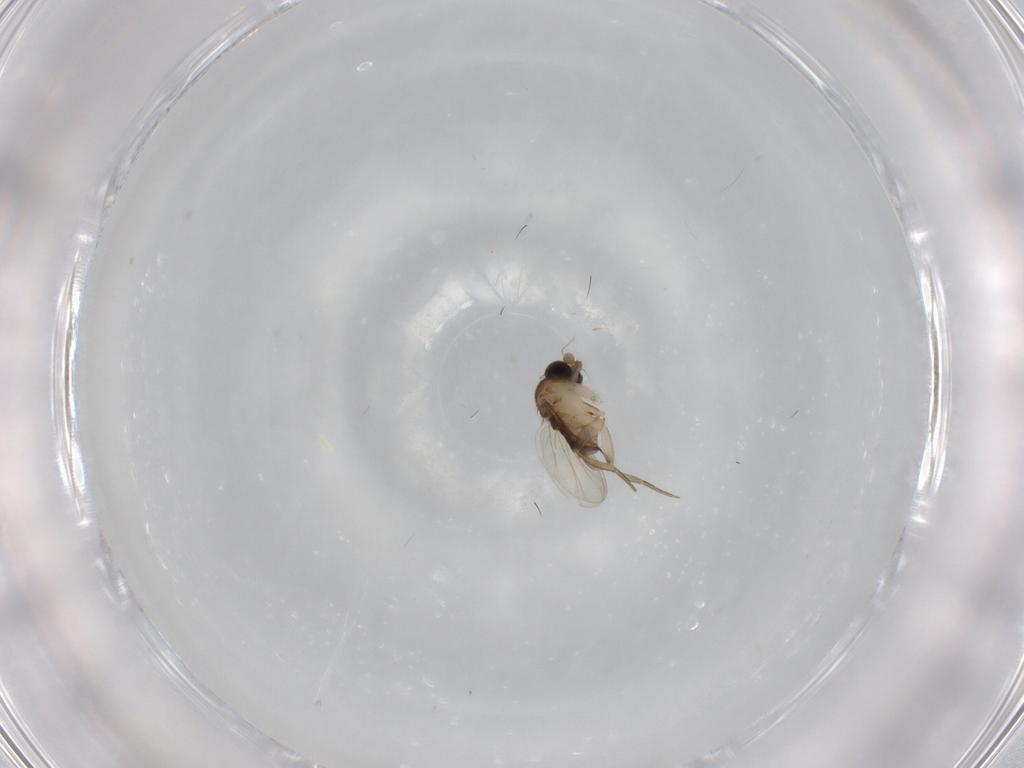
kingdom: Animalia
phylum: Arthropoda
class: Insecta
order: Diptera
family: Phoridae
